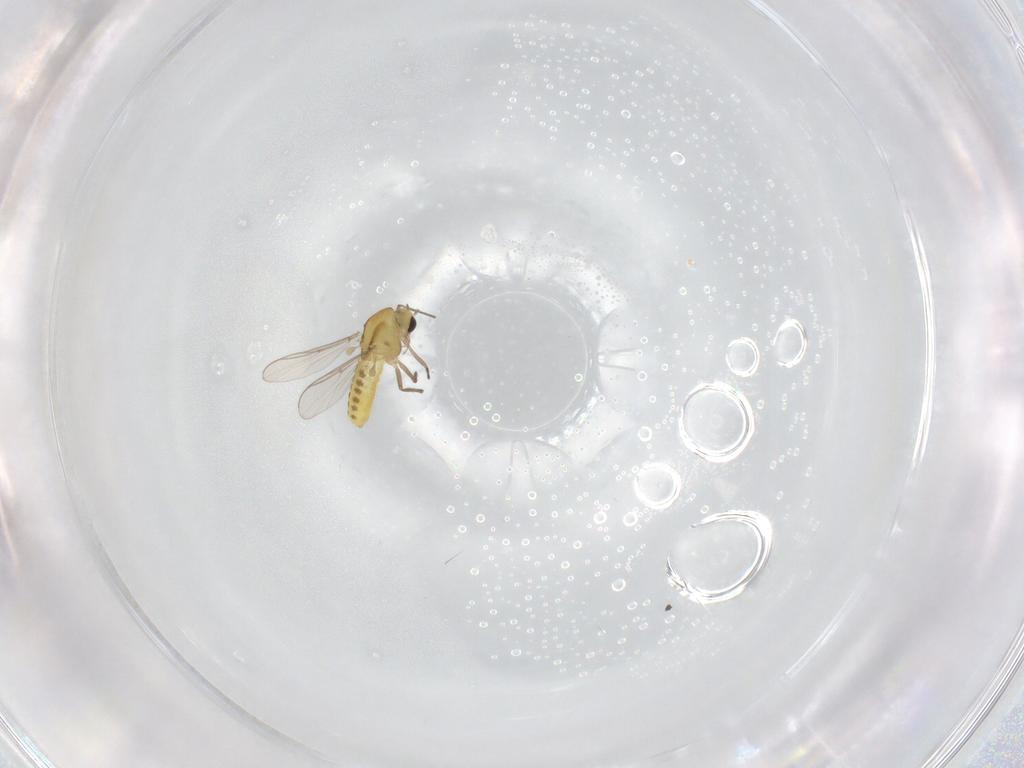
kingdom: Animalia
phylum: Arthropoda
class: Insecta
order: Diptera
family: Chironomidae
